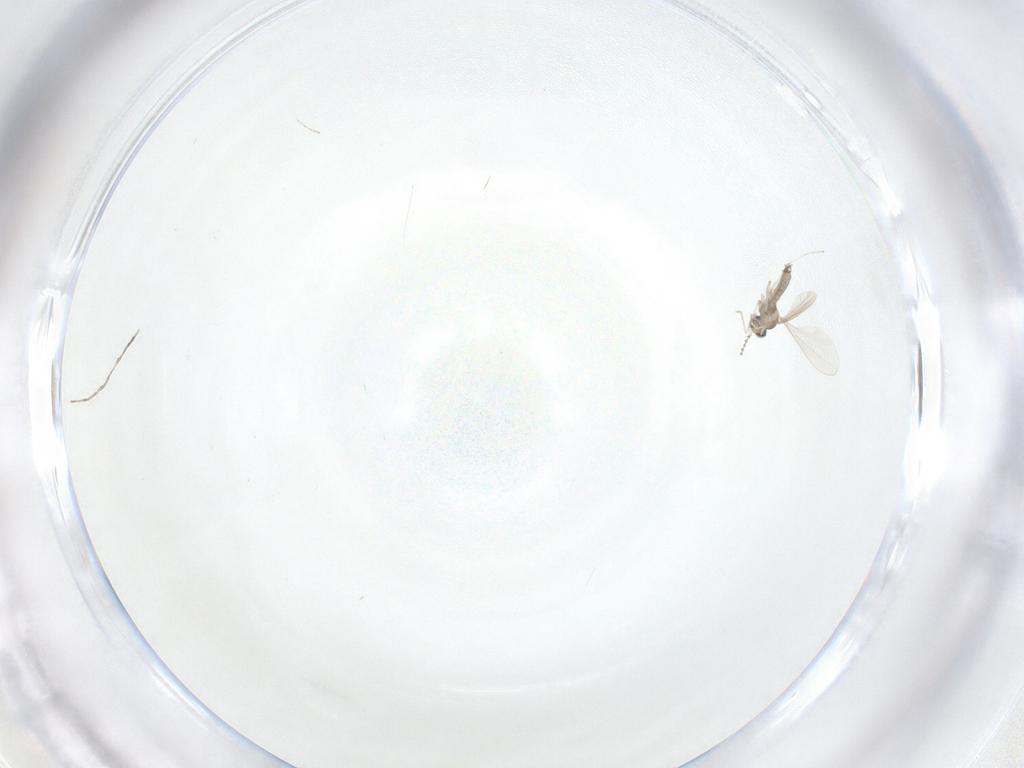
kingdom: Animalia
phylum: Arthropoda
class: Insecta
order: Diptera
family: Cecidomyiidae
